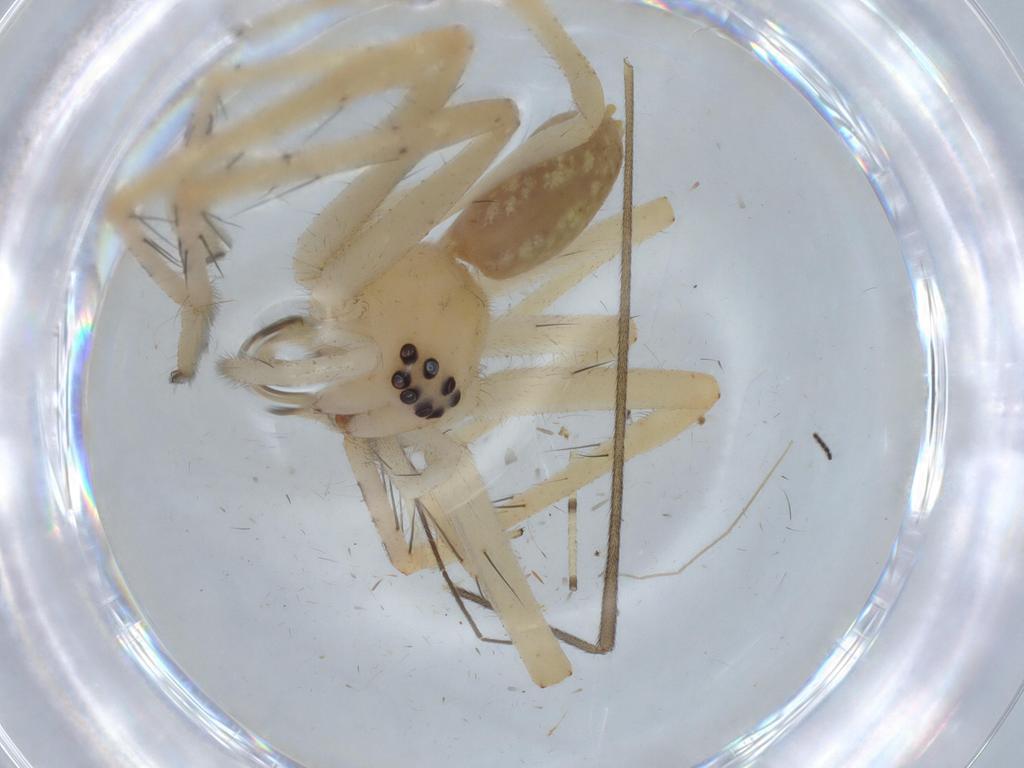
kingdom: Animalia
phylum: Arthropoda
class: Arachnida
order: Araneae
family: Sparassidae
